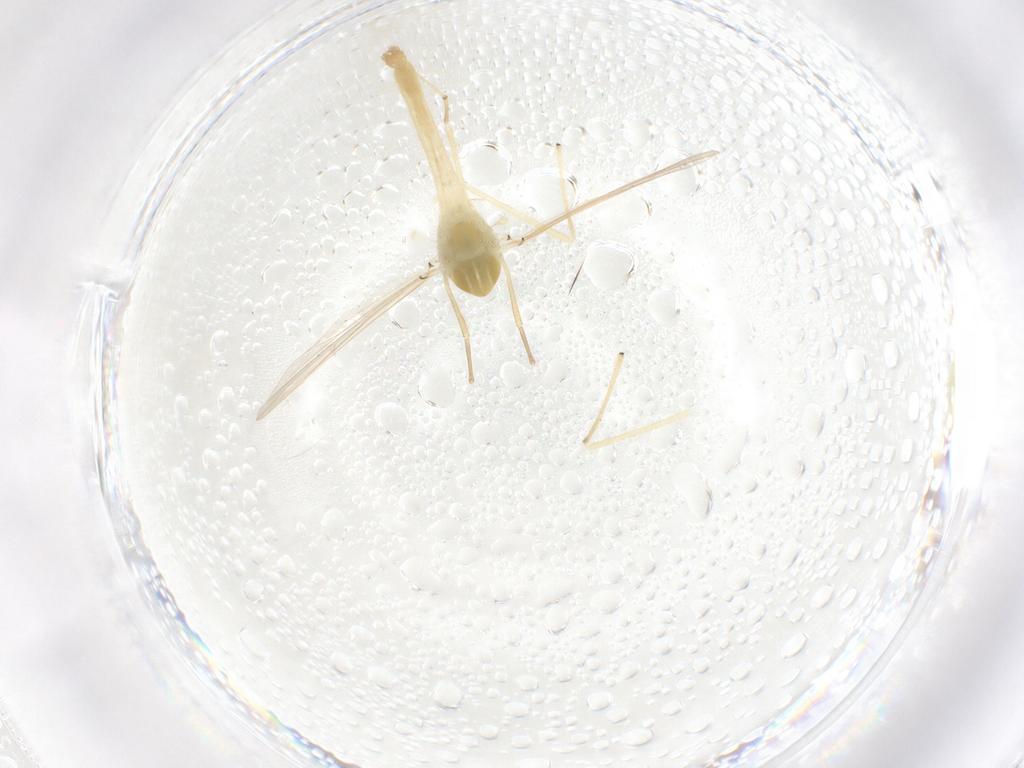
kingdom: Animalia
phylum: Arthropoda
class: Insecta
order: Diptera
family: Chironomidae
